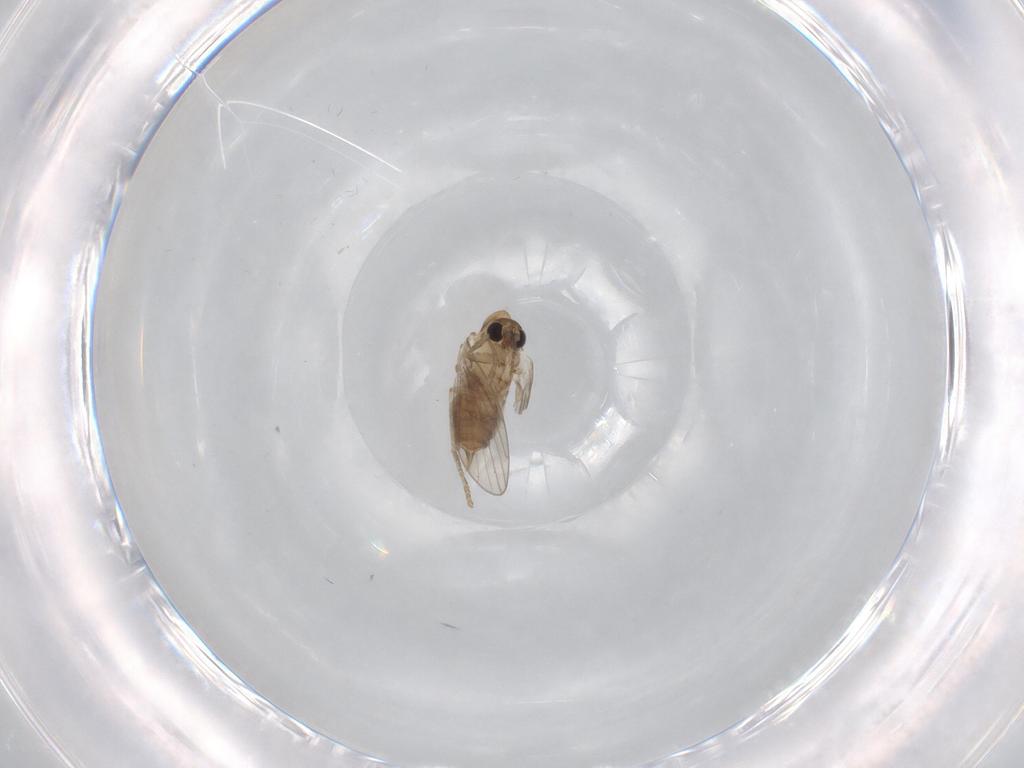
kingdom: Animalia
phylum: Arthropoda
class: Insecta
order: Diptera
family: Psychodidae
